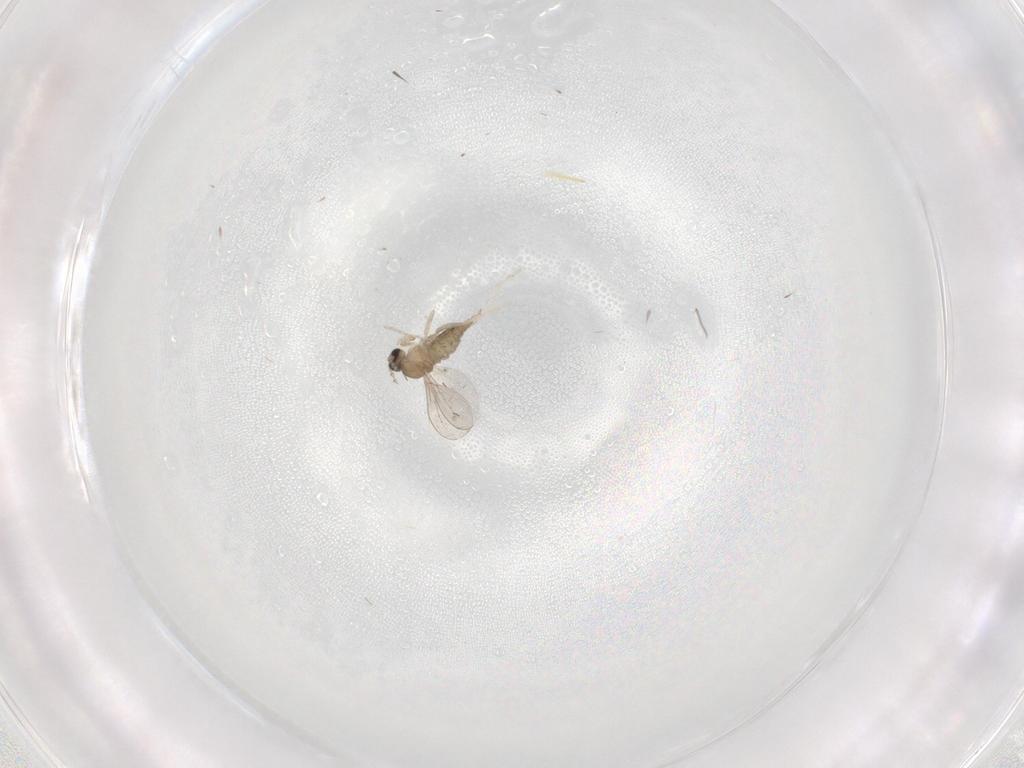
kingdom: Animalia
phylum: Arthropoda
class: Insecta
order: Diptera
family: Cecidomyiidae
